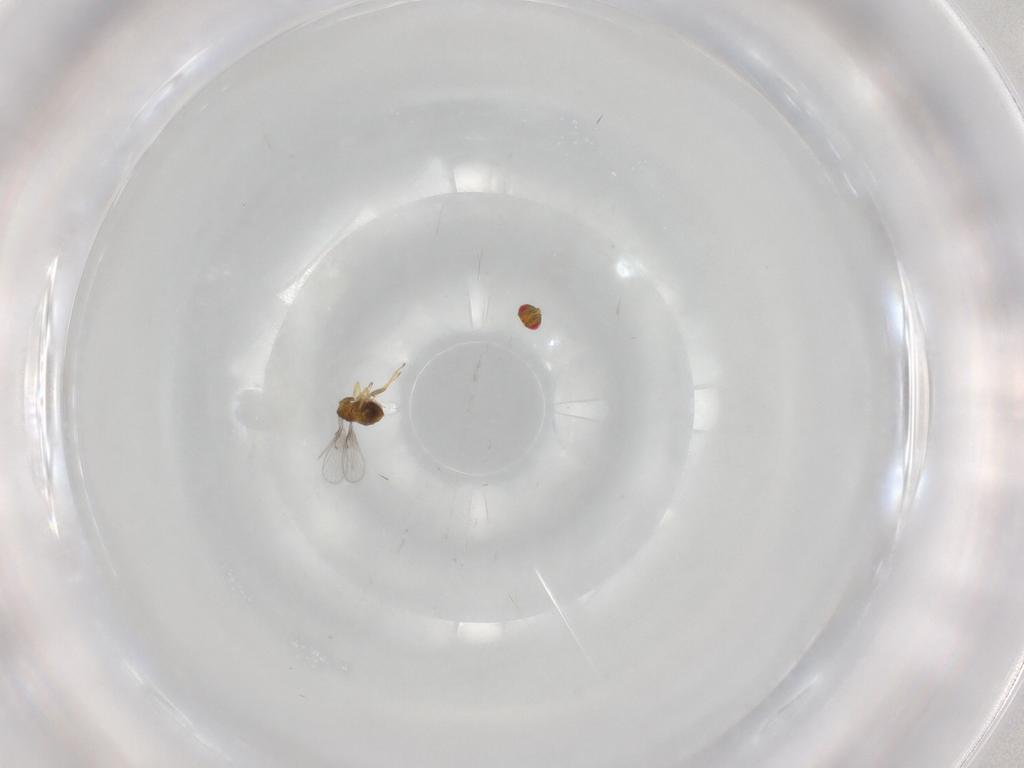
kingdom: Animalia
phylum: Arthropoda
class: Insecta
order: Hymenoptera
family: Trichogrammatidae
